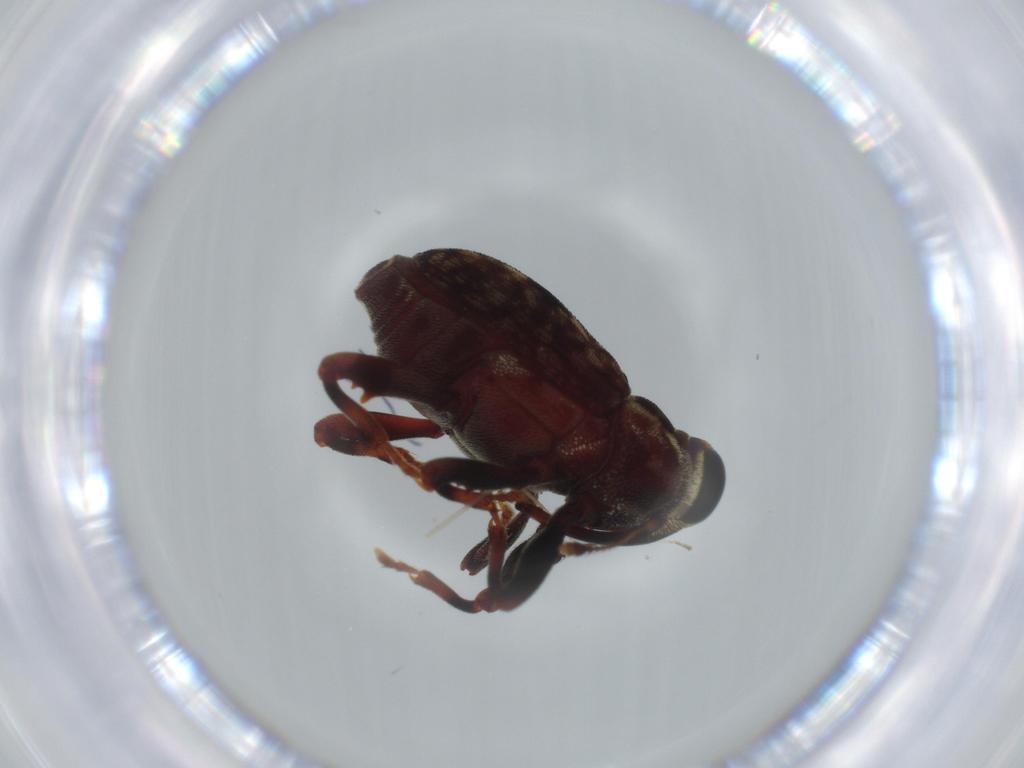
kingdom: Animalia
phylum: Arthropoda
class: Insecta
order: Coleoptera
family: Curculionidae
